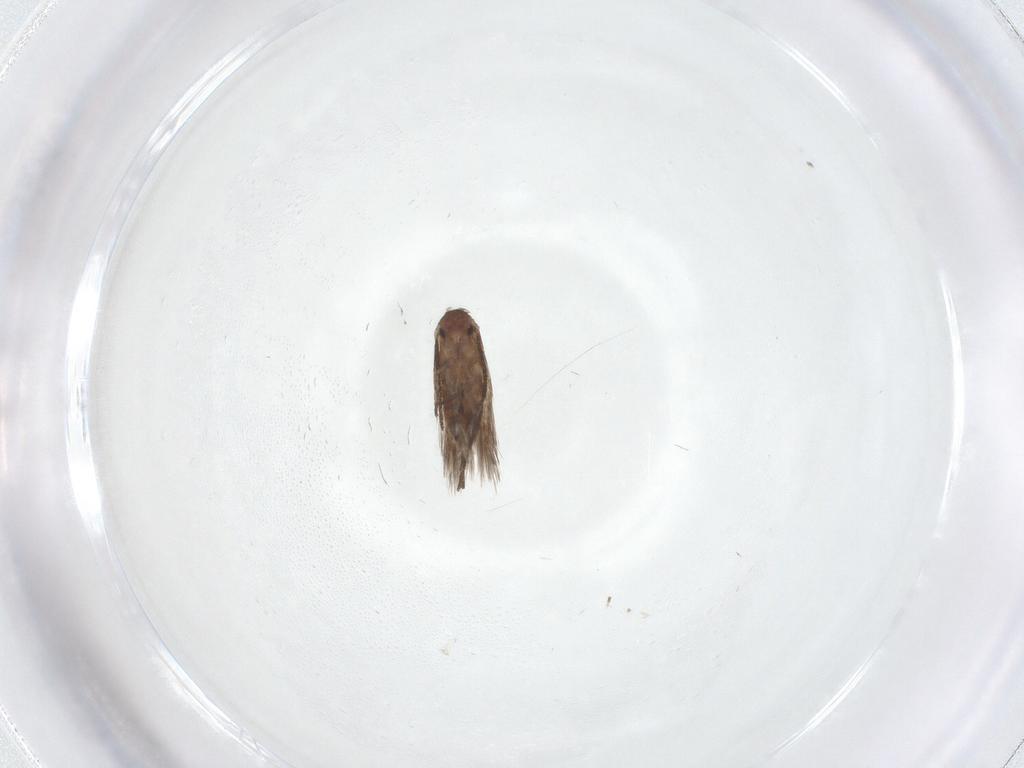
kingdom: Animalia
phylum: Arthropoda
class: Insecta
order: Lepidoptera
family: Lyonetiidae
